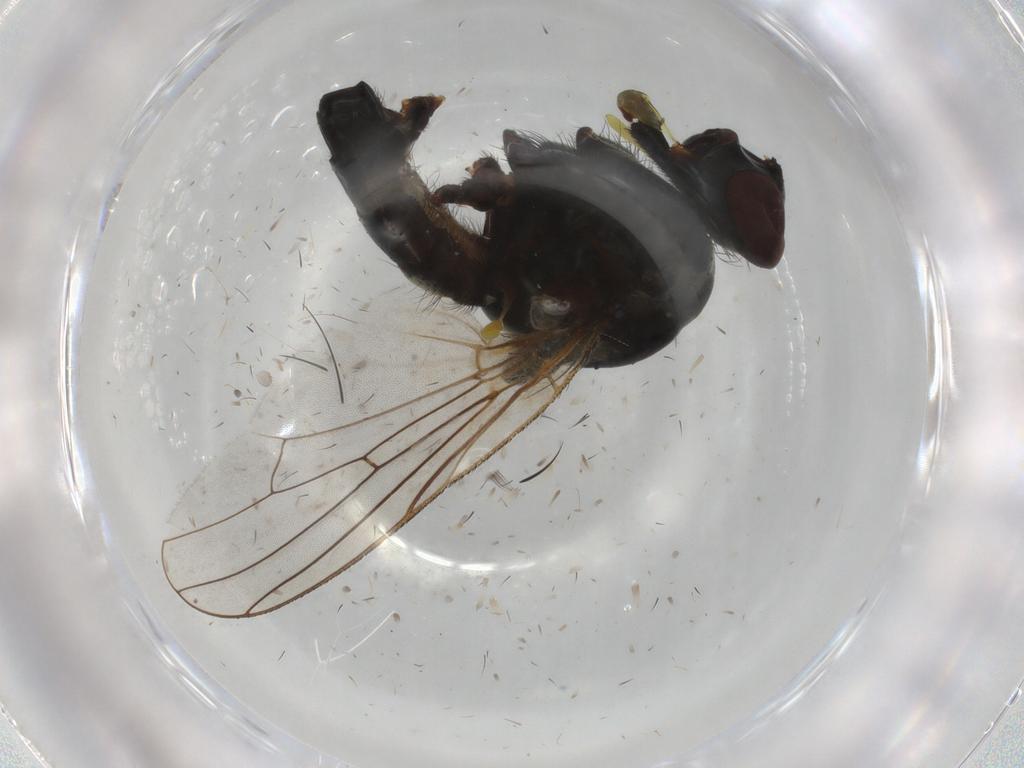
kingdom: Animalia
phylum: Arthropoda
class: Insecta
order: Diptera
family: Anthomyiidae
